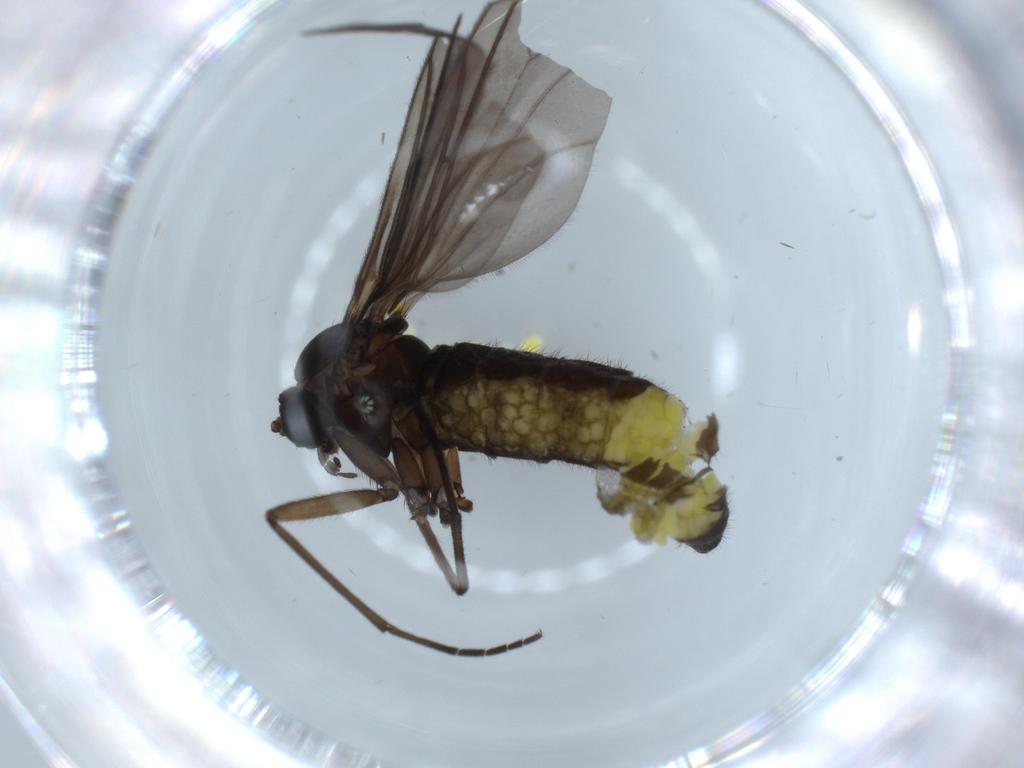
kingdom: Animalia
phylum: Arthropoda
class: Insecta
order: Diptera
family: Sciaridae
